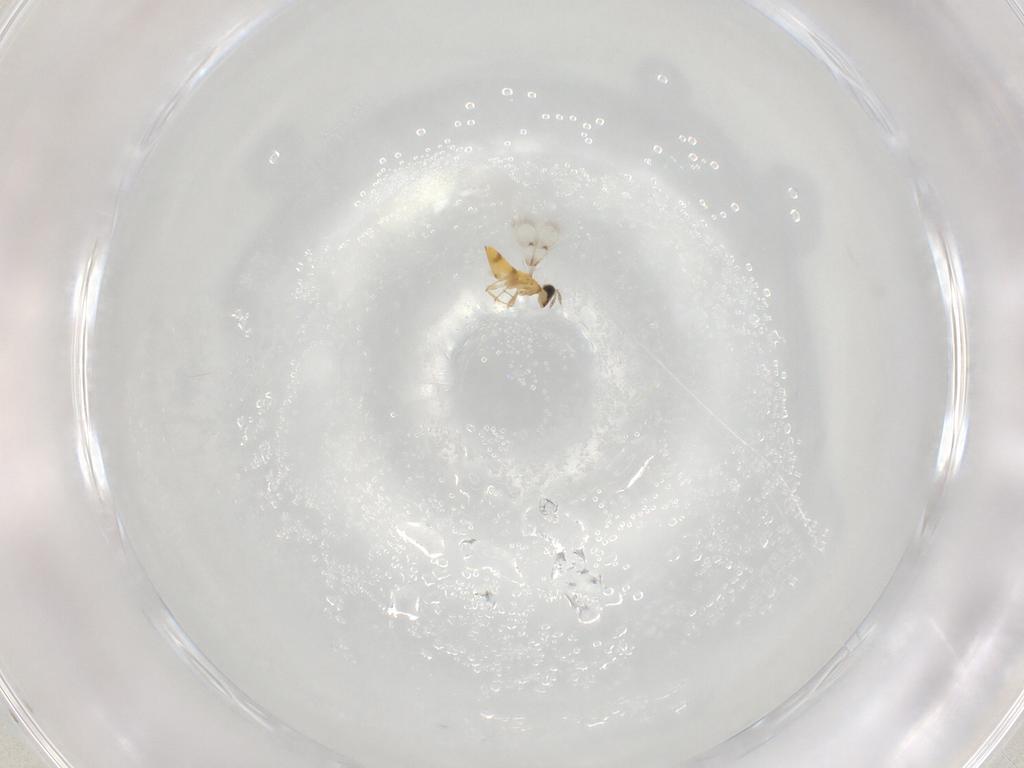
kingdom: Animalia
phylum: Arthropoda
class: Insecta
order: Hymenoptera
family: Trichogrammatidae
